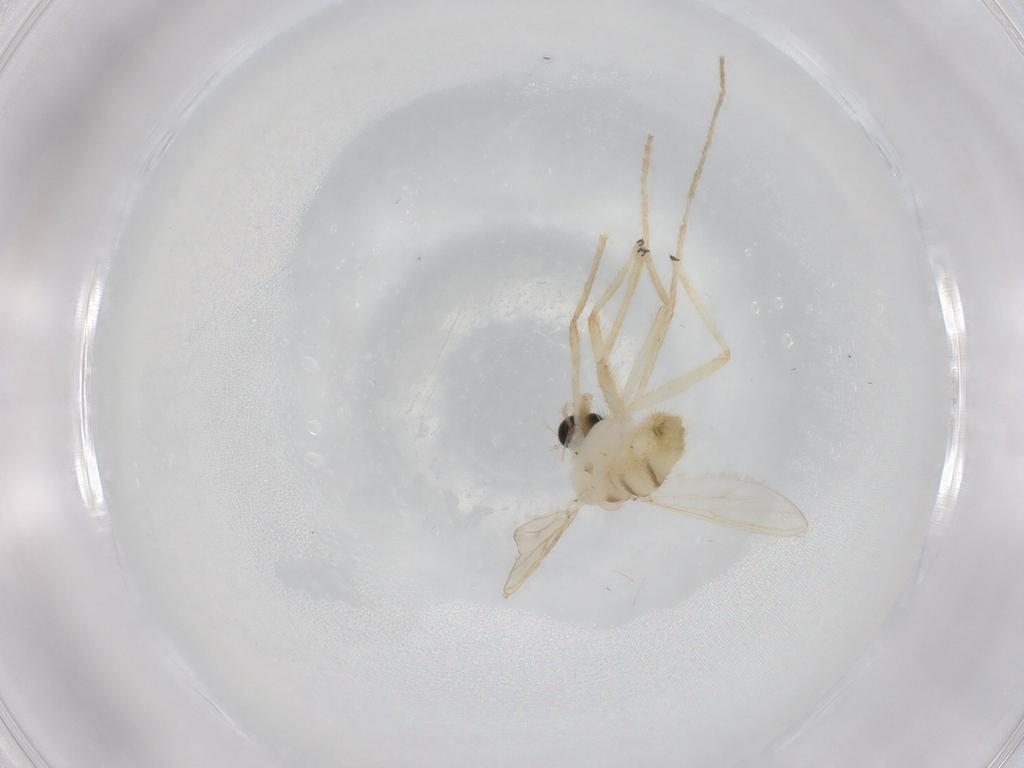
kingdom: Animalia
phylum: Arthropoda
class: Insecta
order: Diptera
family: Chironomidae
